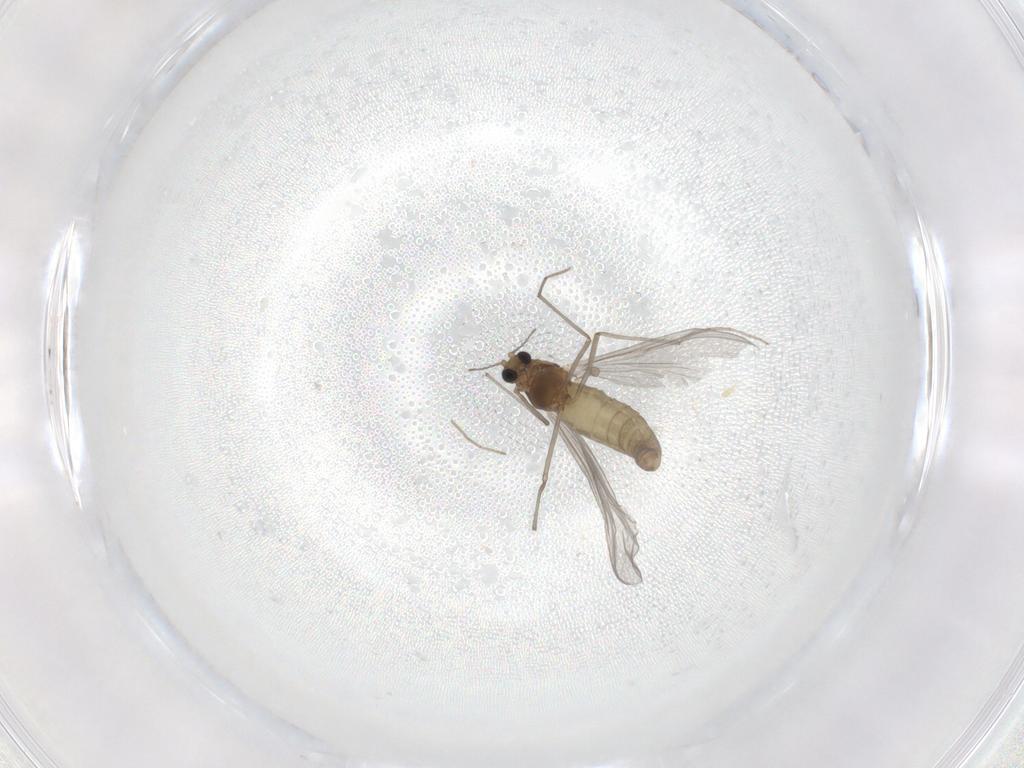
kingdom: Animalia
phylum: Arthropoda
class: Insecta
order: Diptera
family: Chironomidae
